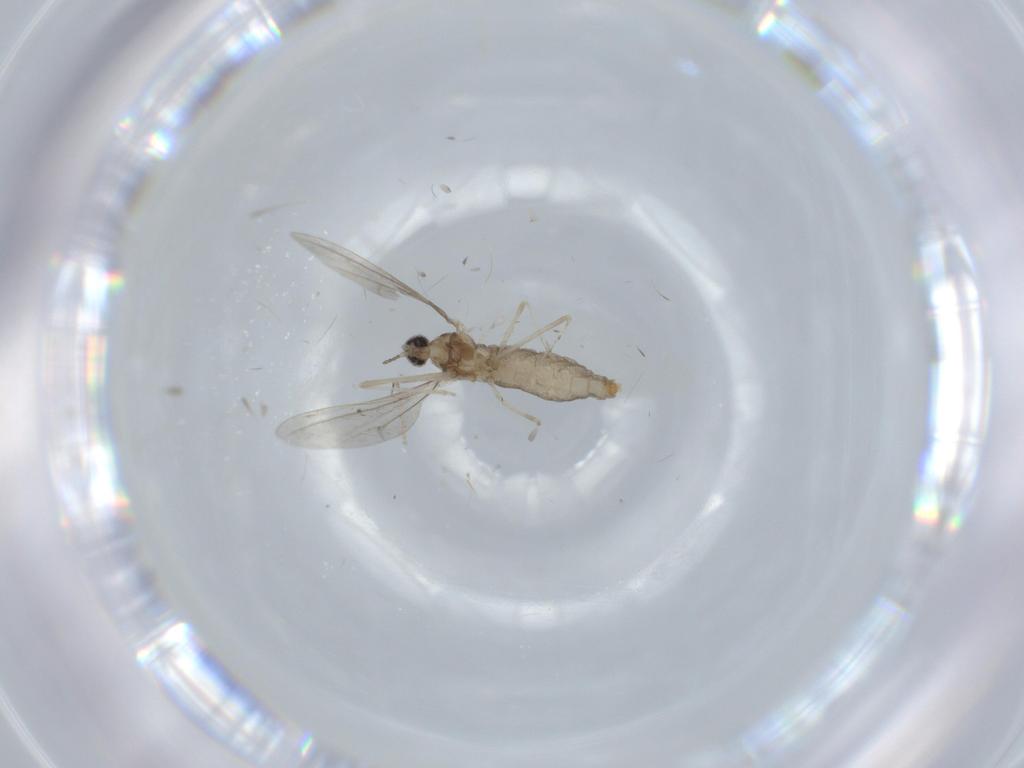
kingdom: Animalia
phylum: Arthropoda
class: Insecta
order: Diptera
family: Cecidomyiidae
